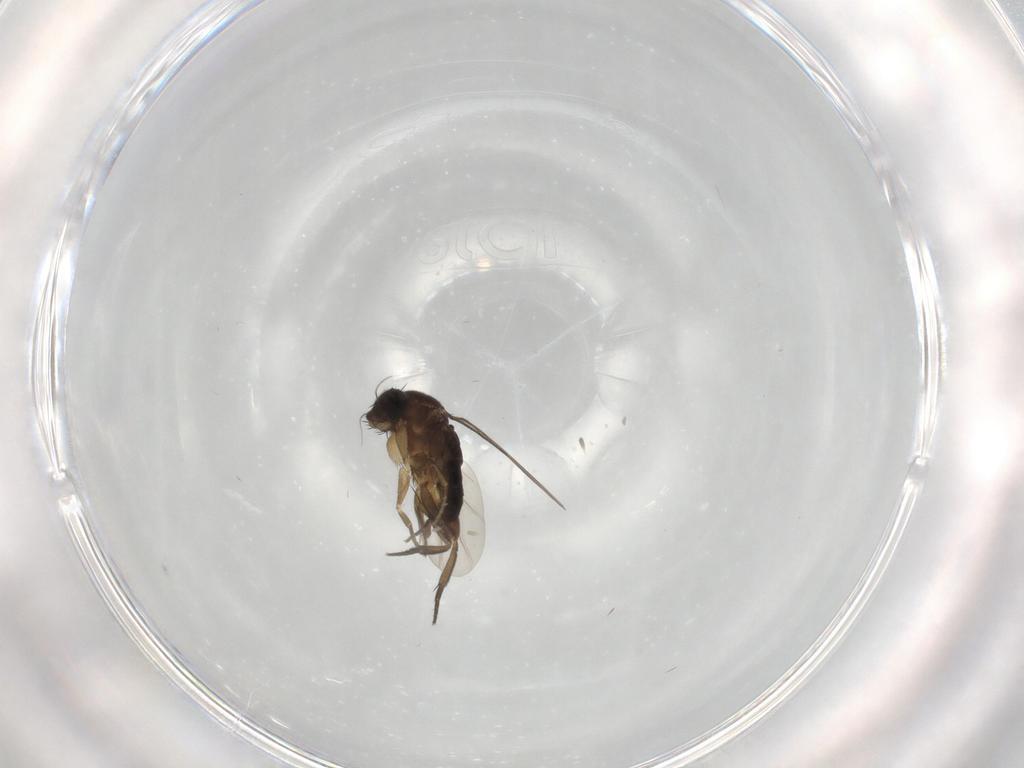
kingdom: Animalia
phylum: Arthropoda
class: Insecta
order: Diptera
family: Phoridae
